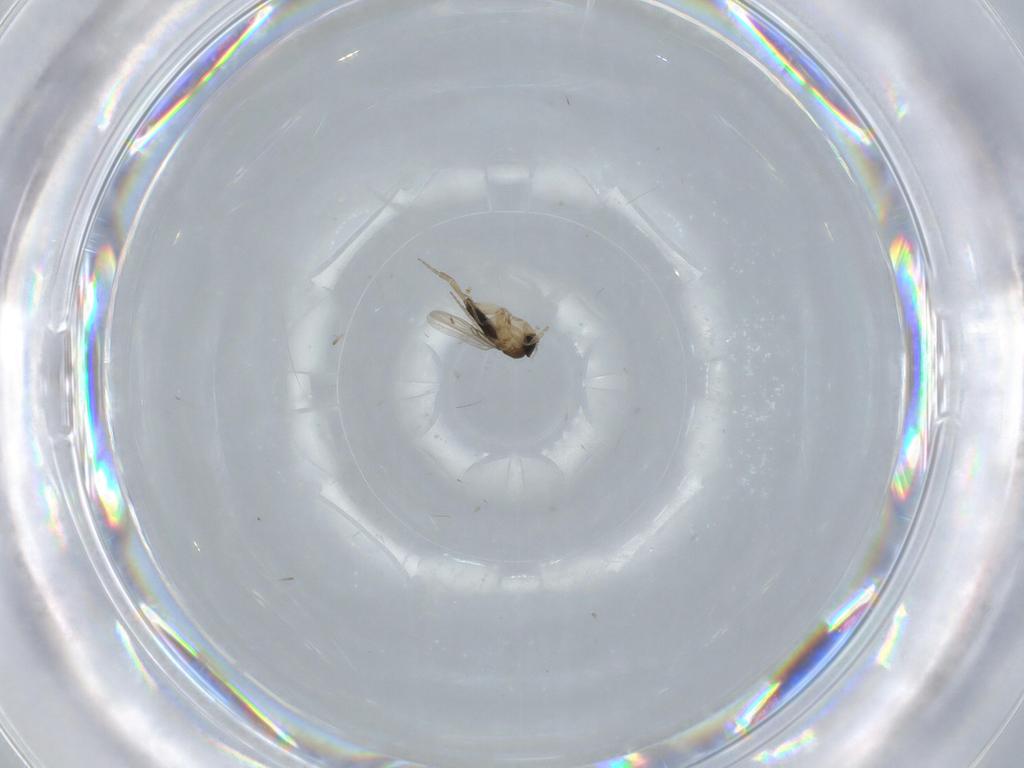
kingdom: Animalia
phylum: Arthropoda
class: Insecta
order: Diptera
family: Phoridae
